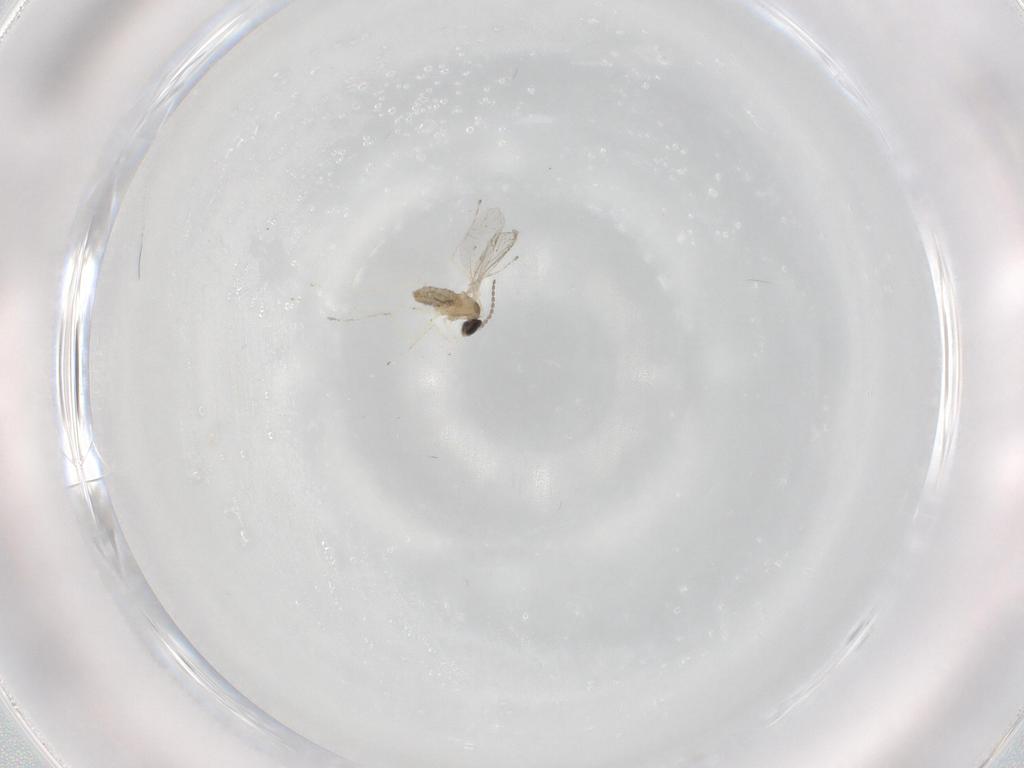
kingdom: Animalia
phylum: Arthropoda
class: Insecta
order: Diptera
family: Cecidomyiidae
